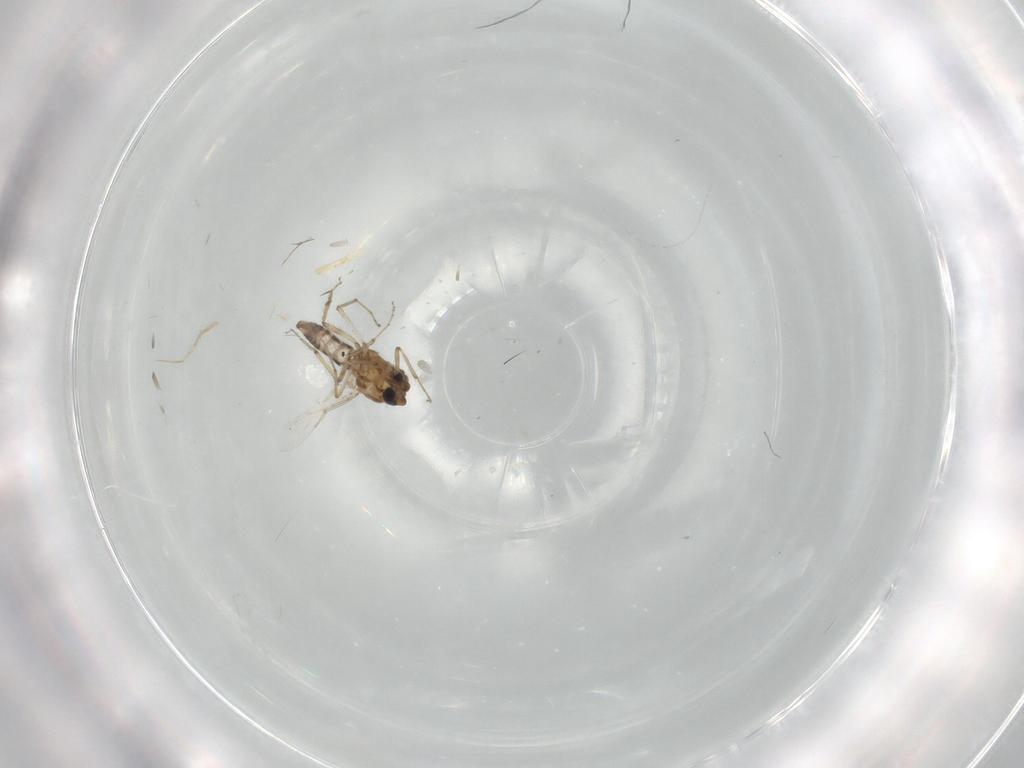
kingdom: Animalia
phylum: Arthropoda
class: Insecta
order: Diptera
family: Ceratopogonidae
